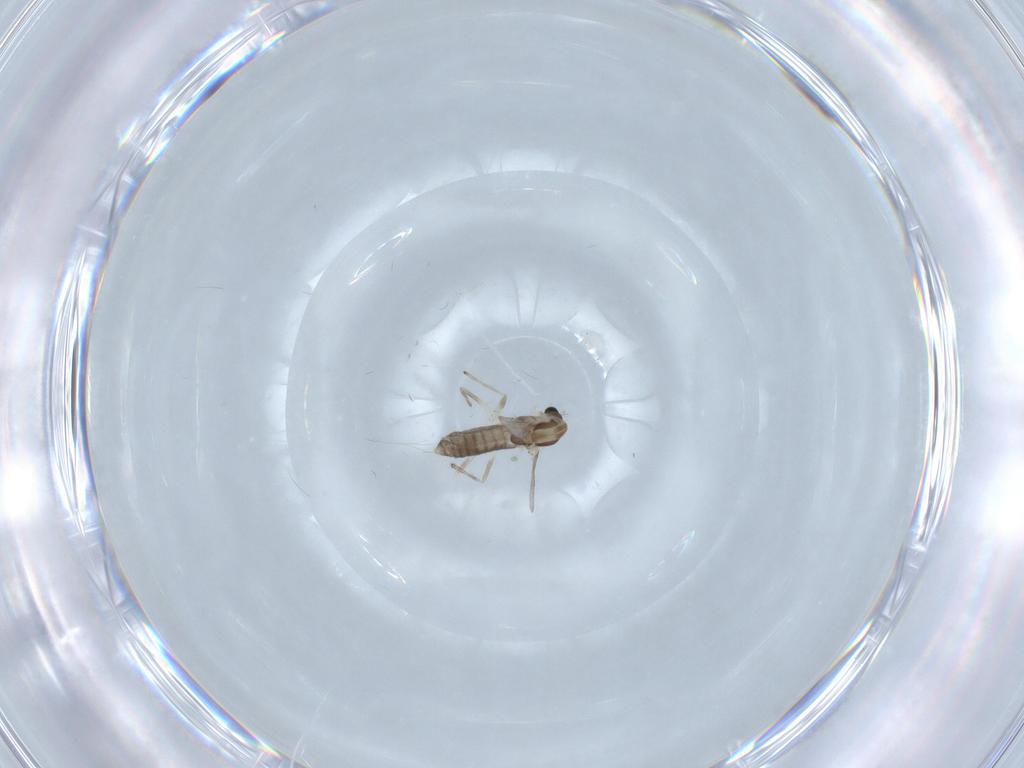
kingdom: Animalia
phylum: Arthropoda
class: Insecta
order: Diptera
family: Chironomidae
